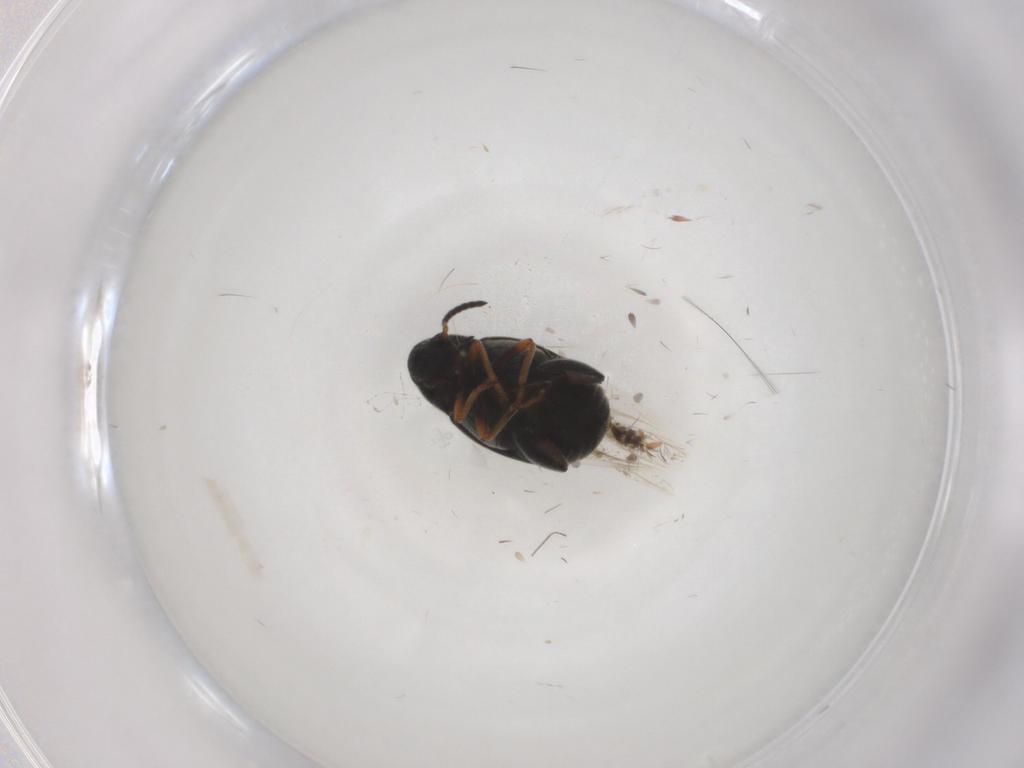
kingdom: Animalia
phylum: Arthropoda
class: Insecta
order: Coleoptera
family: Chrysomelidae
